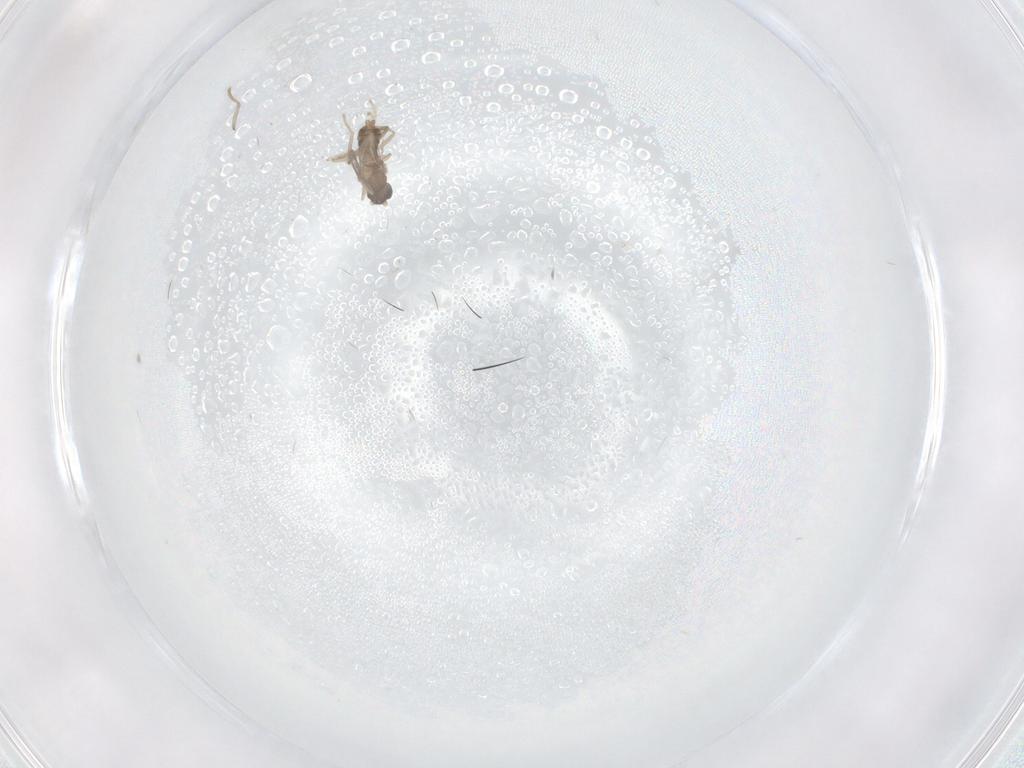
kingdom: Animalia
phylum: Arthropoda
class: Insecta
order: Diptera
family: Cecidomyiidae
